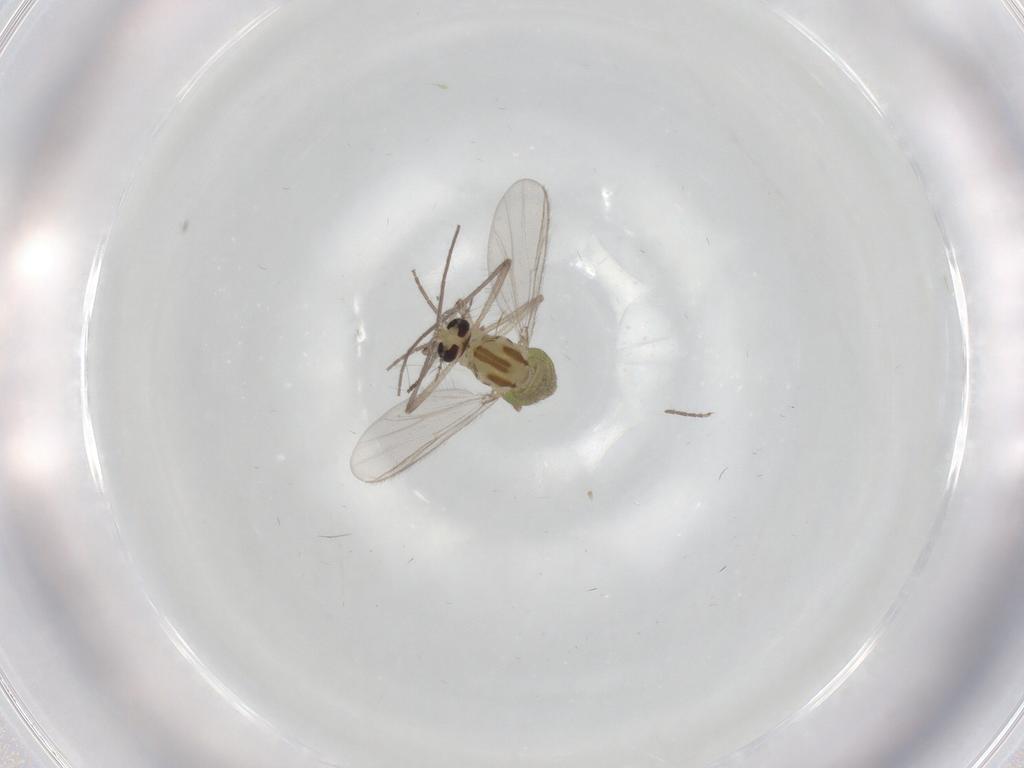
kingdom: Animalia
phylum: Arthropoda
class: Insecta
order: Diptera
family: Chironomidae
